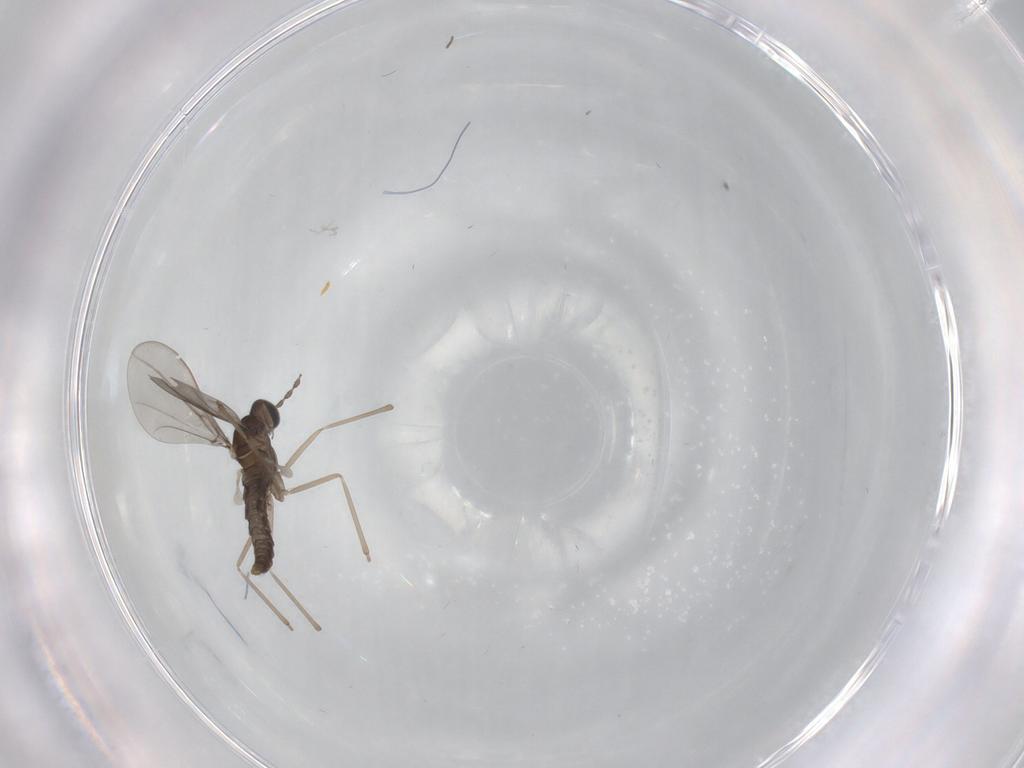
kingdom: Animalia
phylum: Arthropoda
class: Insecta
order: Diptera
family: Cecidomyiidae
